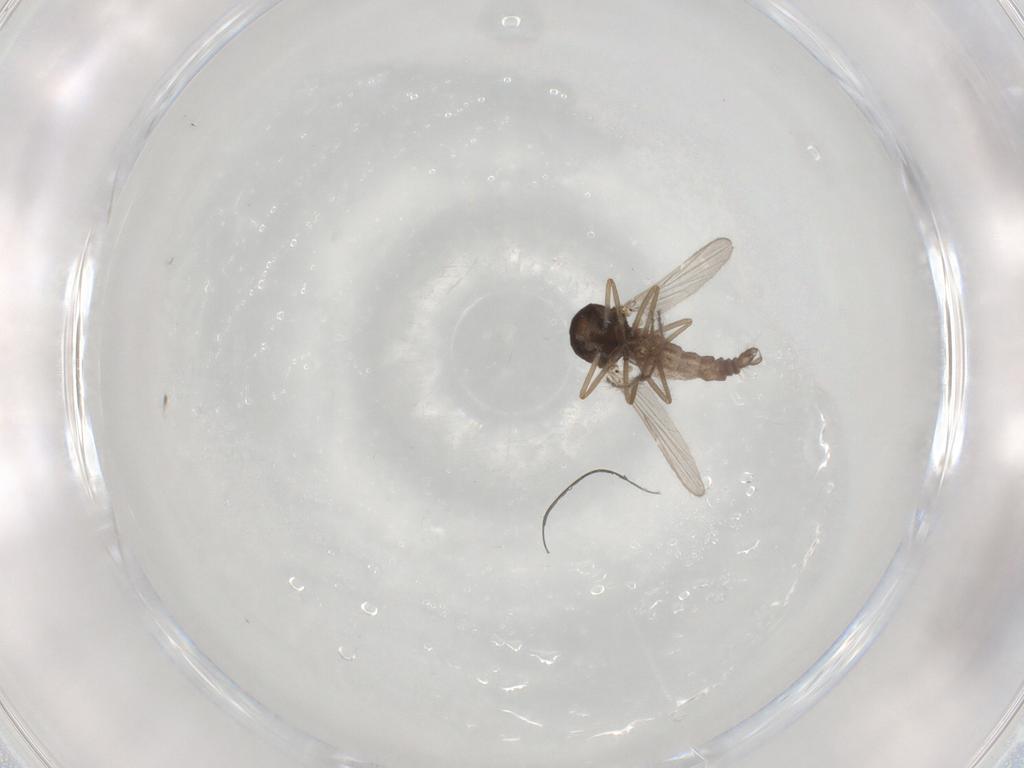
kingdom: Animalia
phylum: Arthropoda
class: Insecta
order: Diptera
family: Ceratopogonidae
